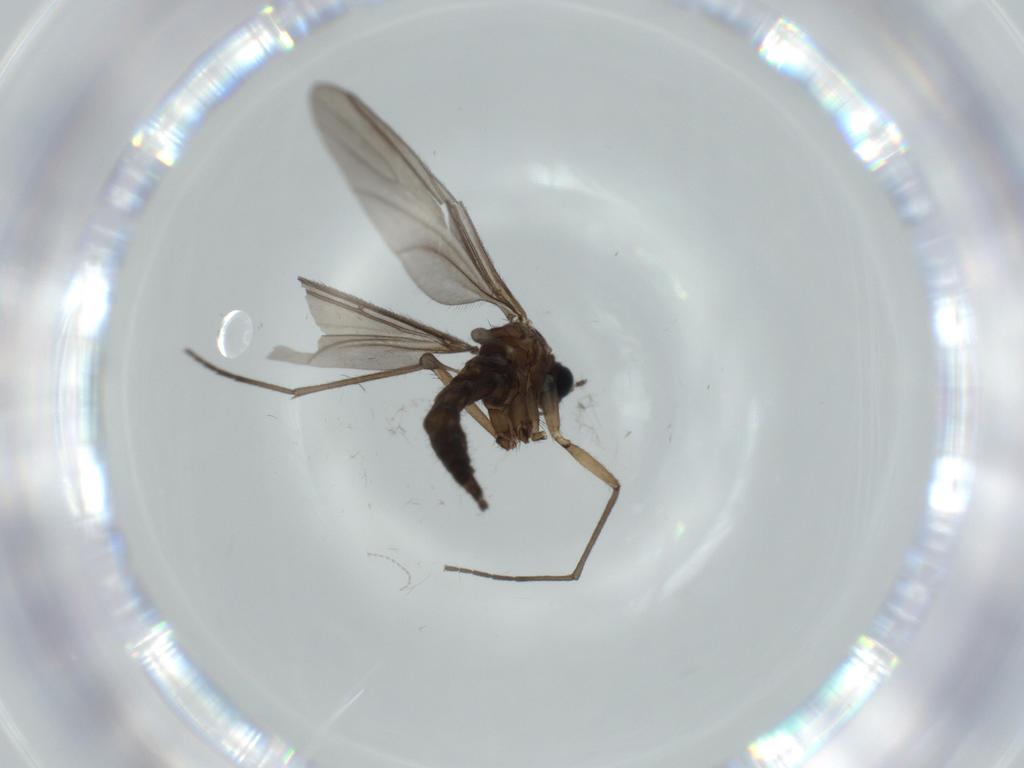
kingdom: Animalia
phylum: Arthropoda
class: Insecta
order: Diptera
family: Sciaridae
